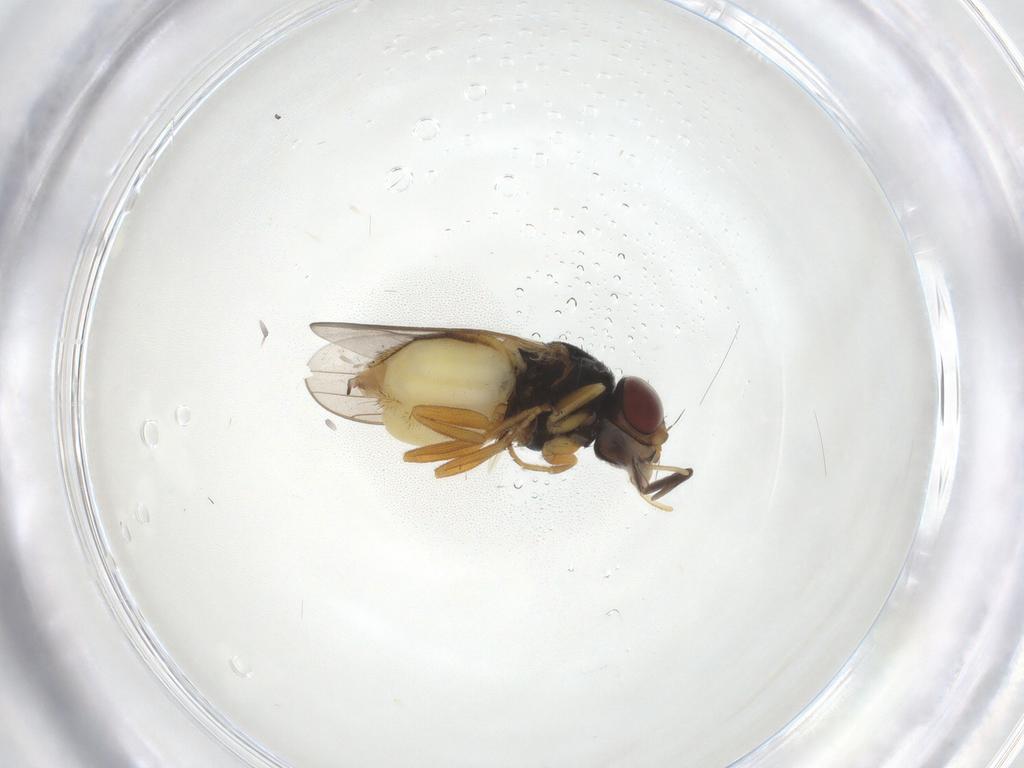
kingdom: Animalia
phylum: Arthropoda
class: Insecta
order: Diptera
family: Chloropidae
